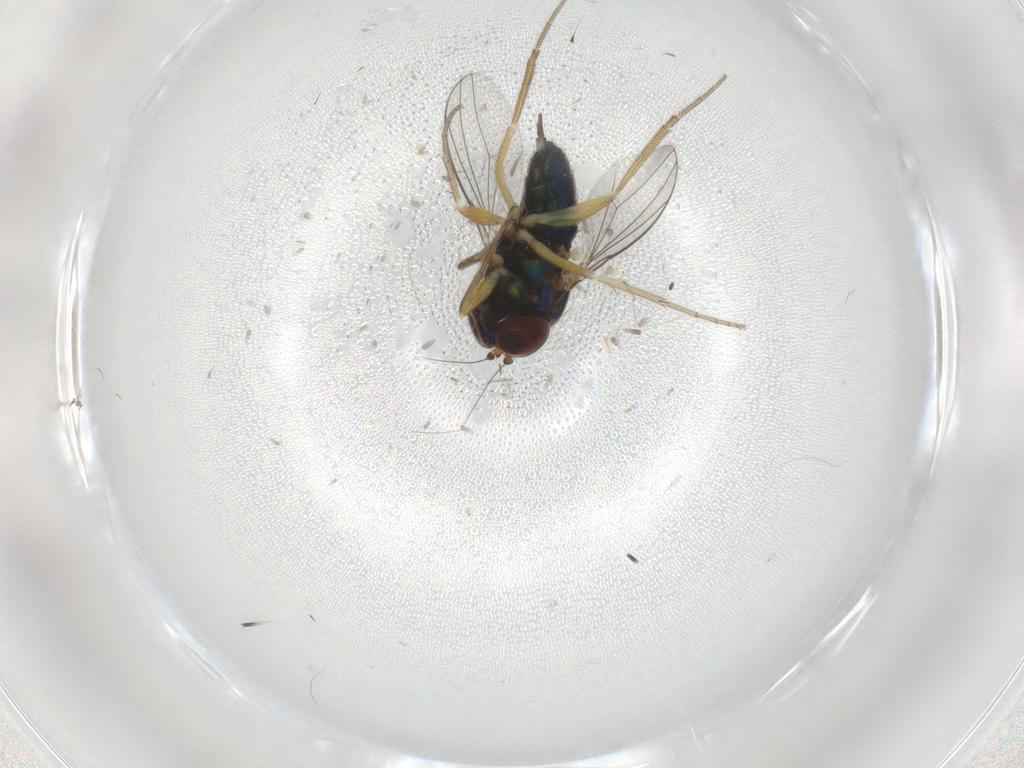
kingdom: Animalia
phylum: Arthropoda
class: Insecta
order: Diptera
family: Dolichopodidae
